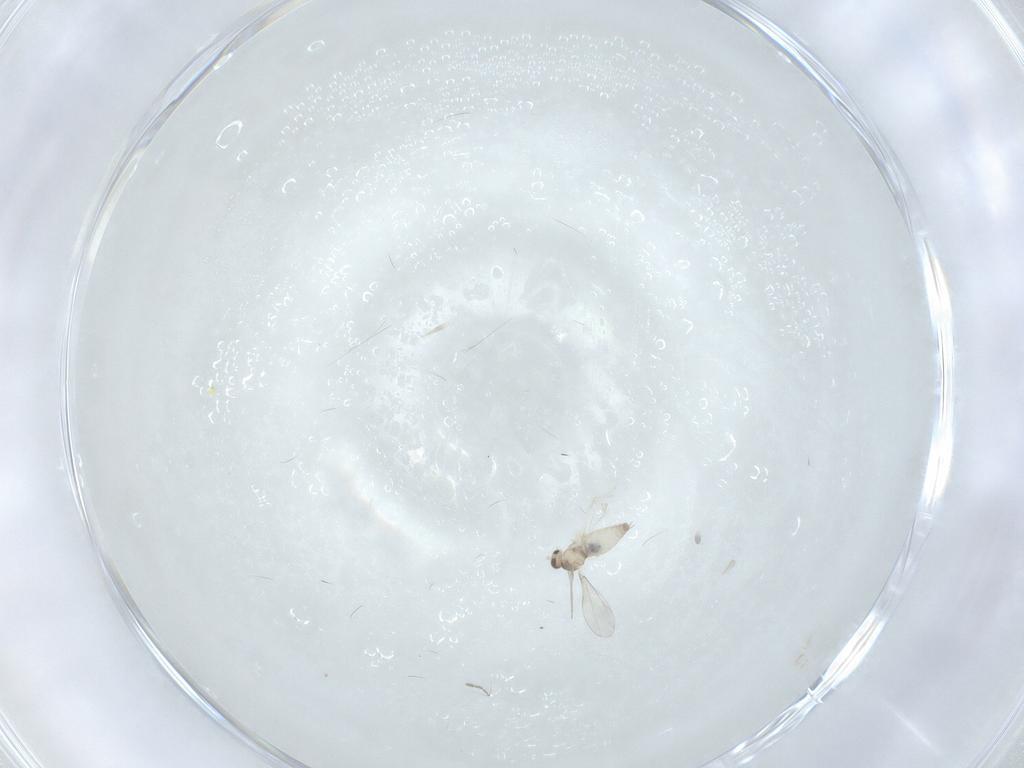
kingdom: Animalia
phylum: Arthropoda
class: Insecta
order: Diptera
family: Cecidomyiidae
